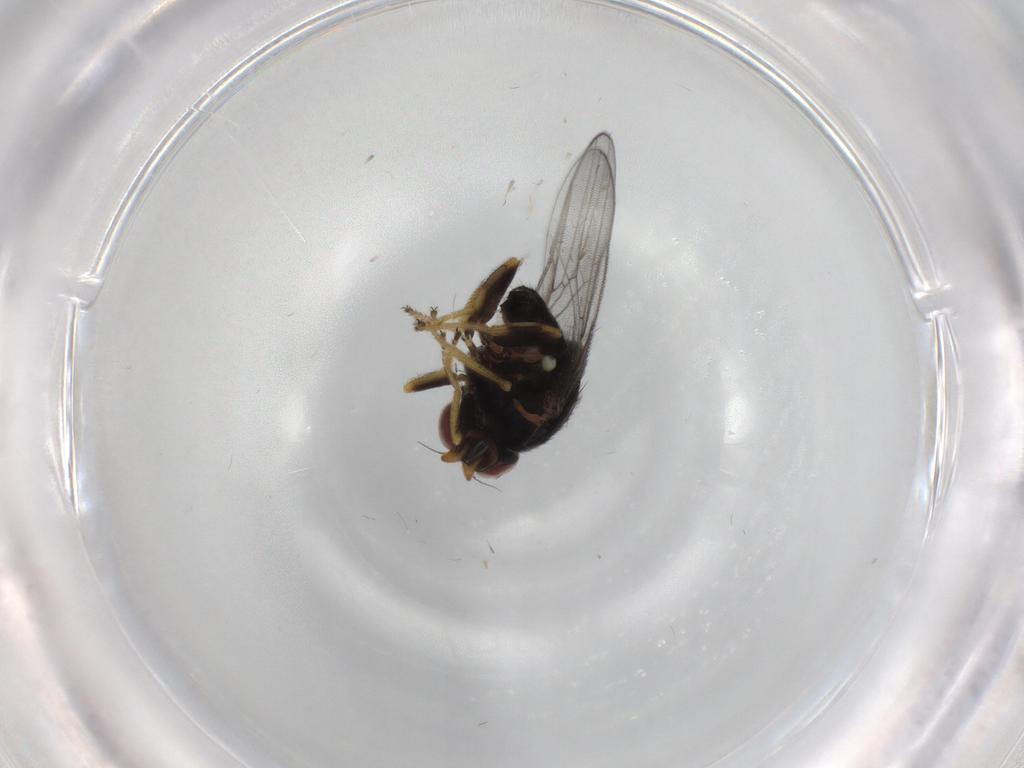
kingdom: Animalia
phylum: Arthropoda
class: Insecta
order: Diptera
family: Chloropidae
